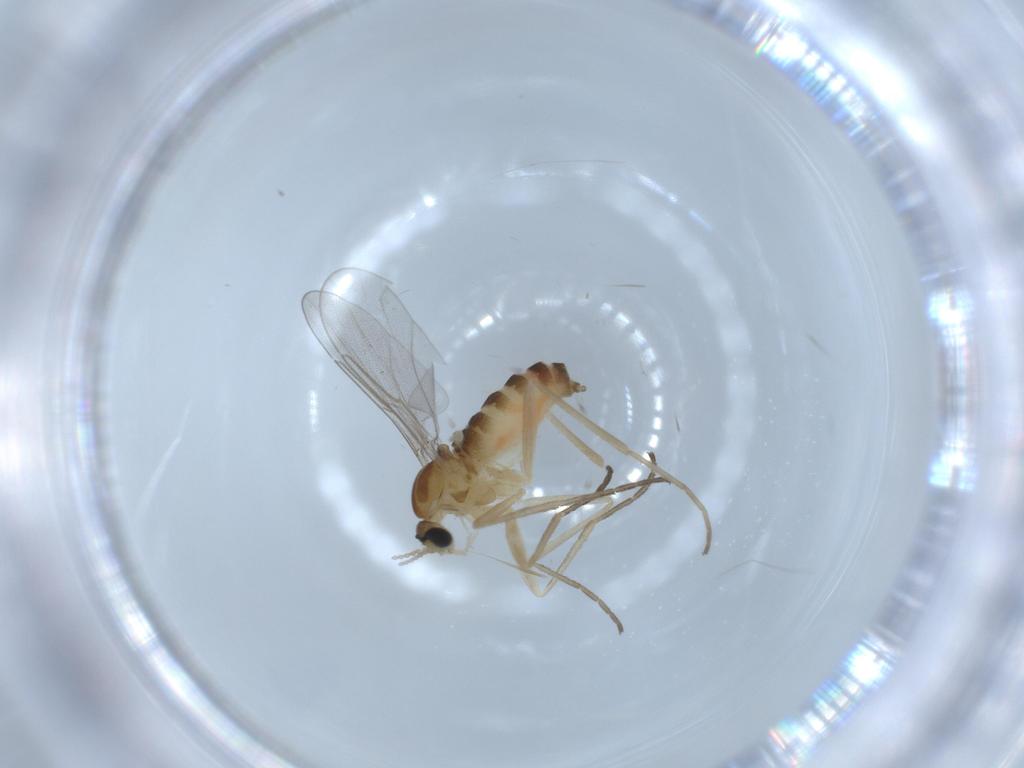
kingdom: Animalia
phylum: Arthropoda
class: Insecta
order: Diptera
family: Cecidomyiidae
